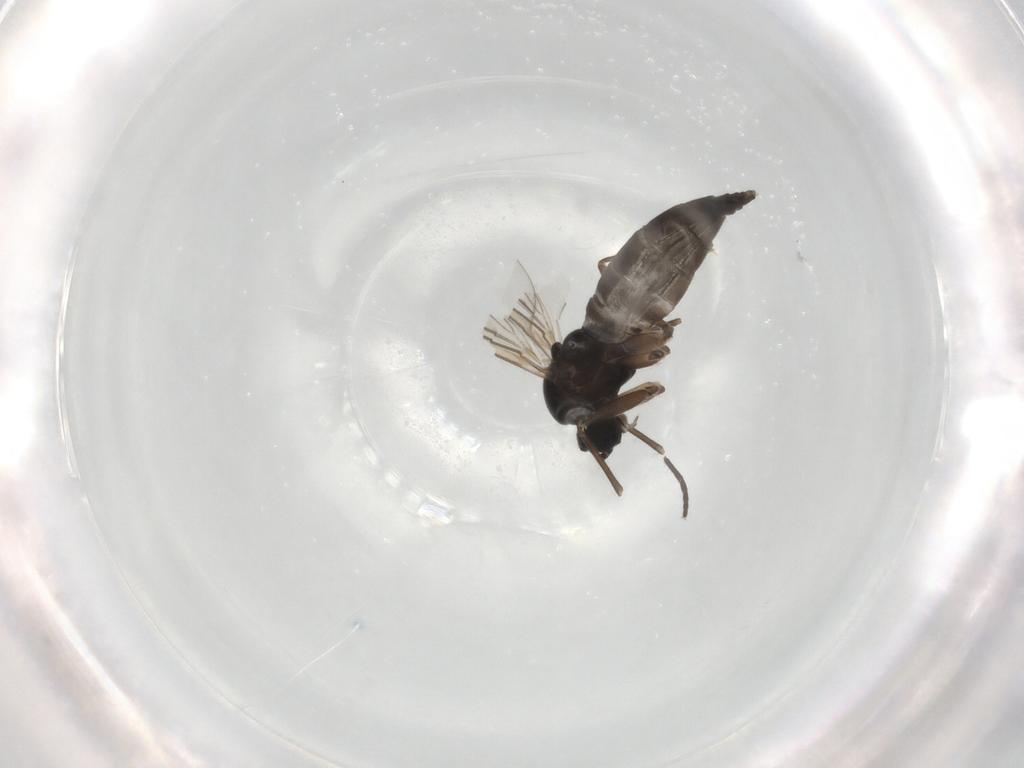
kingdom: Animalia
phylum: Arthropoda
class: Insecta
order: Diptera
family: Sciaridae
